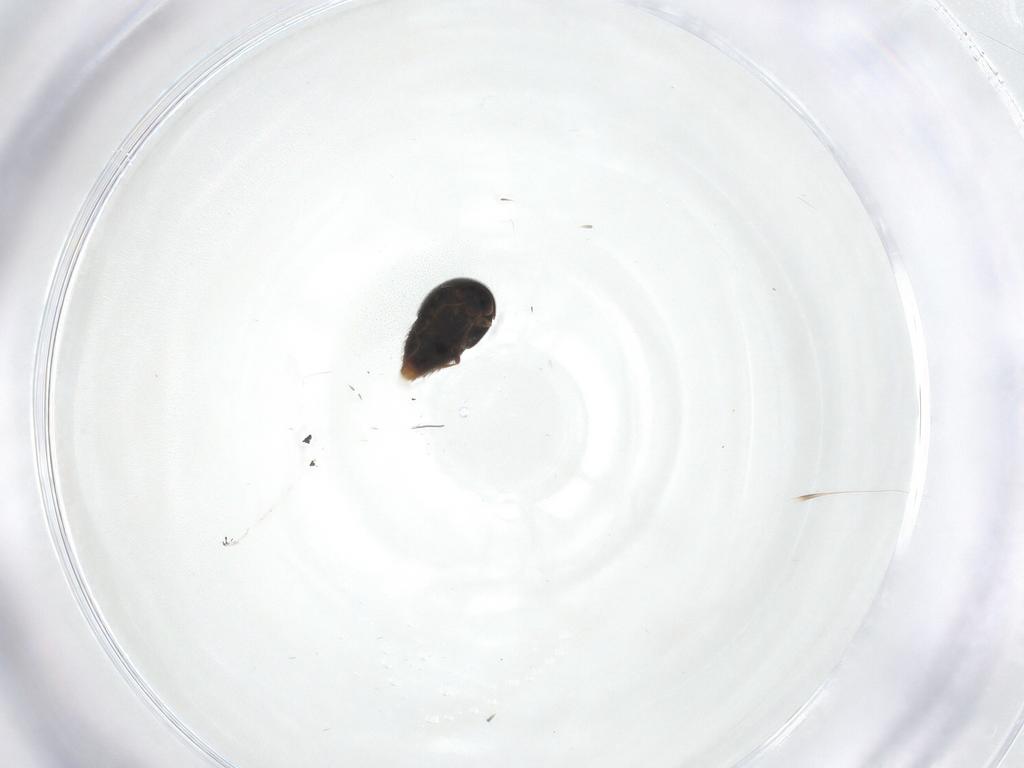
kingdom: Animalia
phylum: Arthropoda
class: Insecta
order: Coleoptera
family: Staphylinidae
